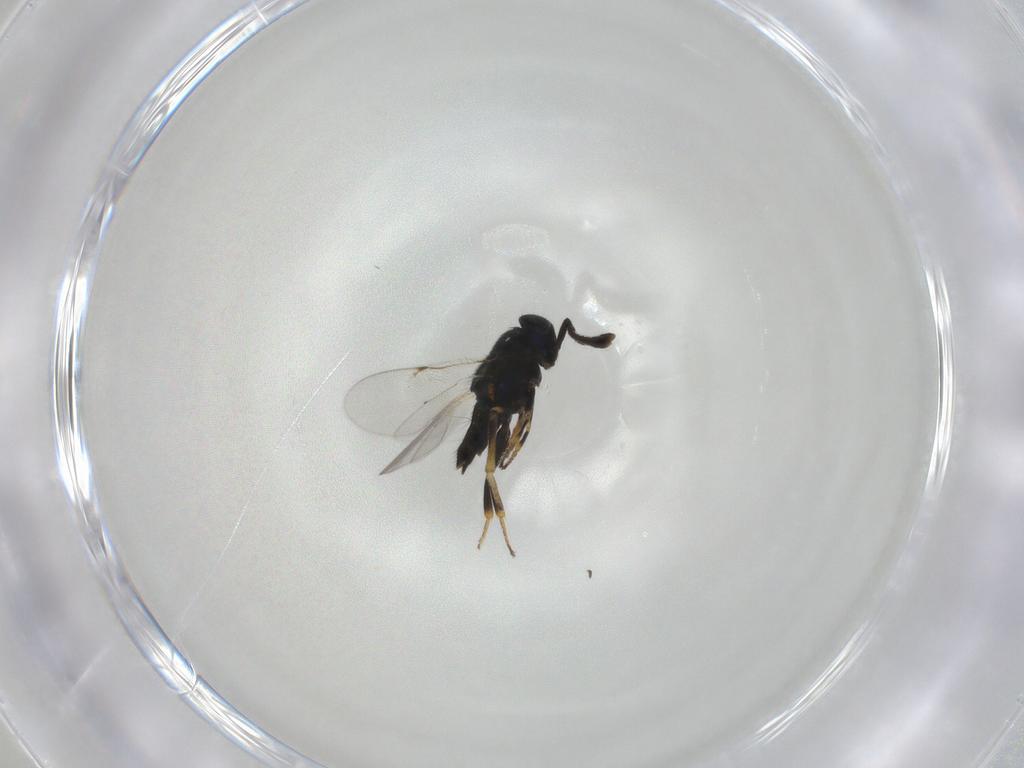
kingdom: Animalia
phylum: Arthropoda
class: Insecta
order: Hymenoptera
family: Encyrtidae
